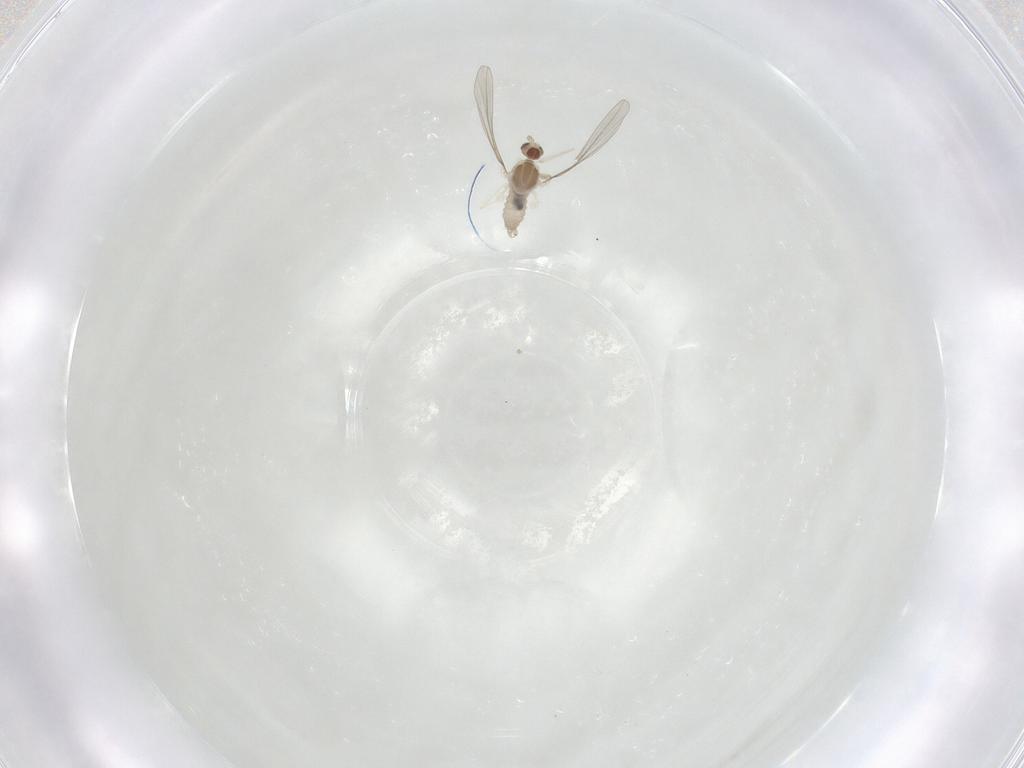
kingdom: Animalia
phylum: Arthropoda
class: Insecta
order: Diptera
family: Cecidomyiidae
